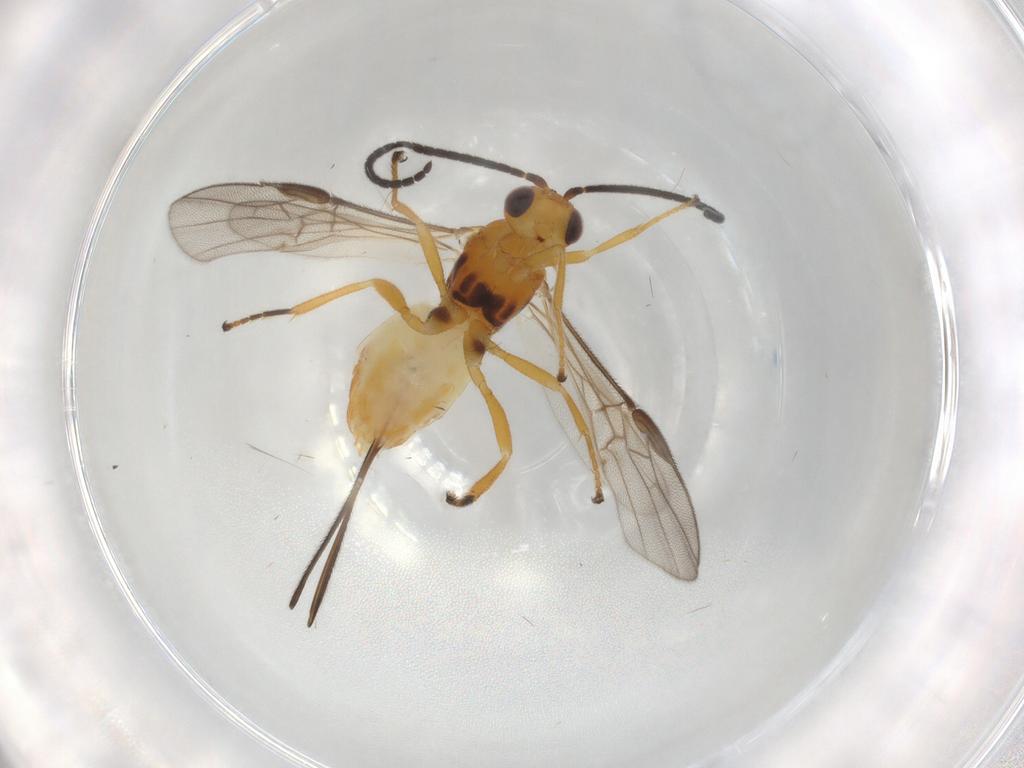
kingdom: Animalia
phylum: Arthropoda
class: Insecta
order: Hymenoptera
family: Braconidae
